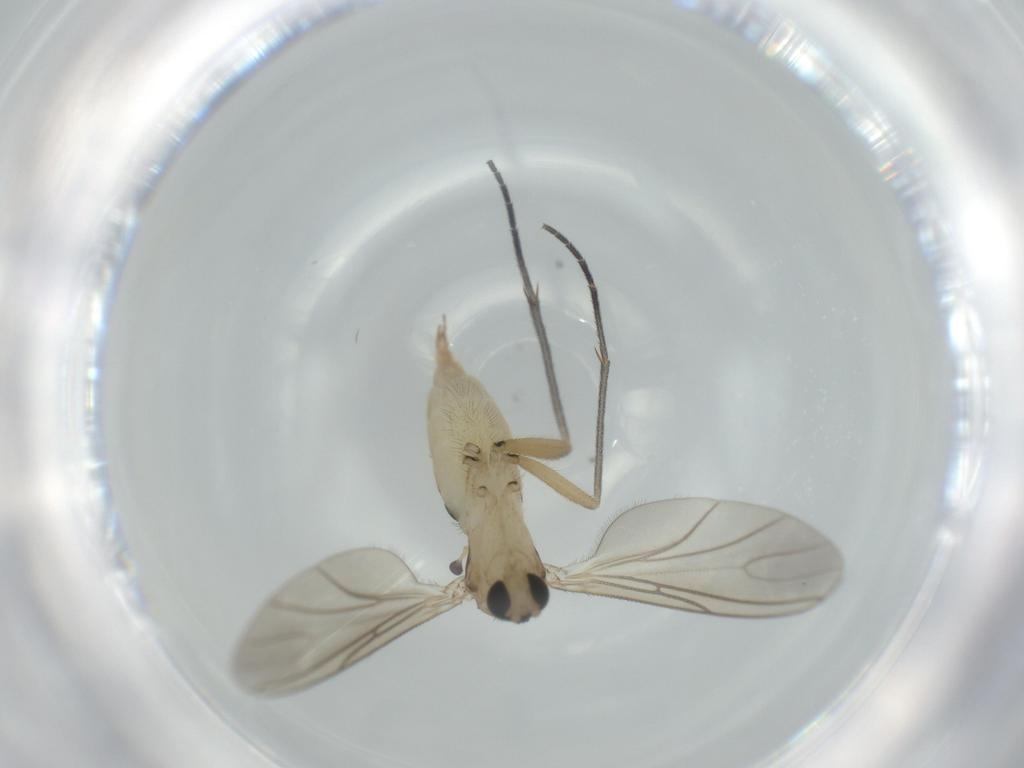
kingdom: Animalia
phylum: Arthropoda
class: Insecta
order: Diptera
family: Sciaridae
